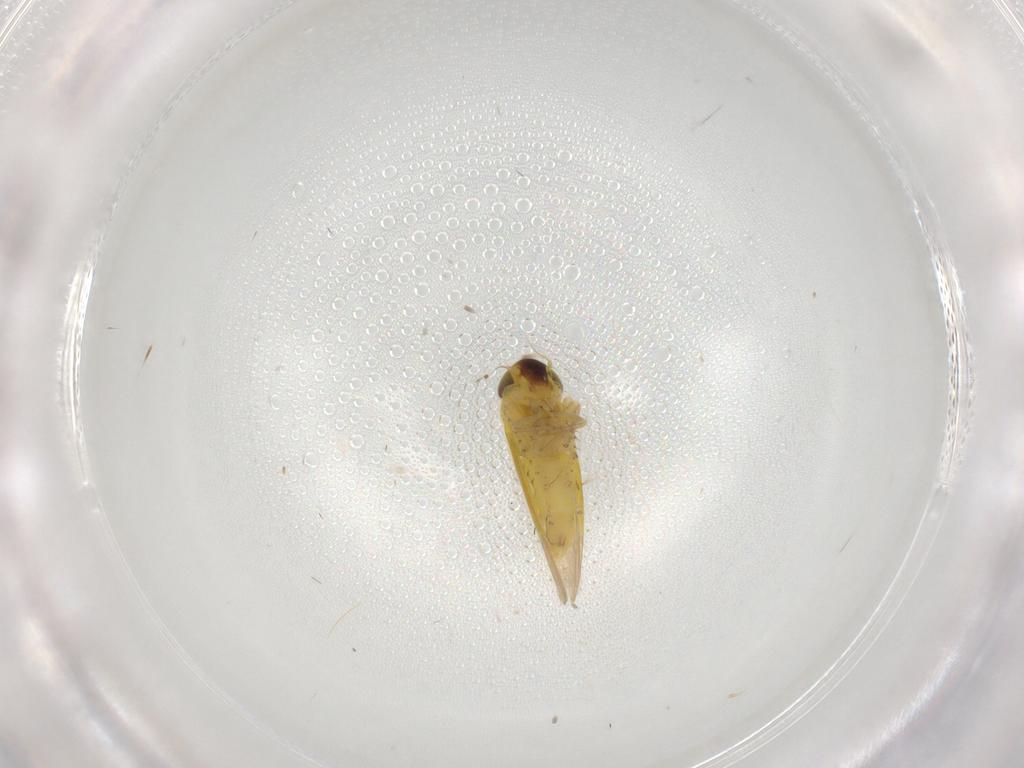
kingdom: Animalia
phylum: Arthropoda
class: Insecta
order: Hemiptera
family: Cicadellidae
